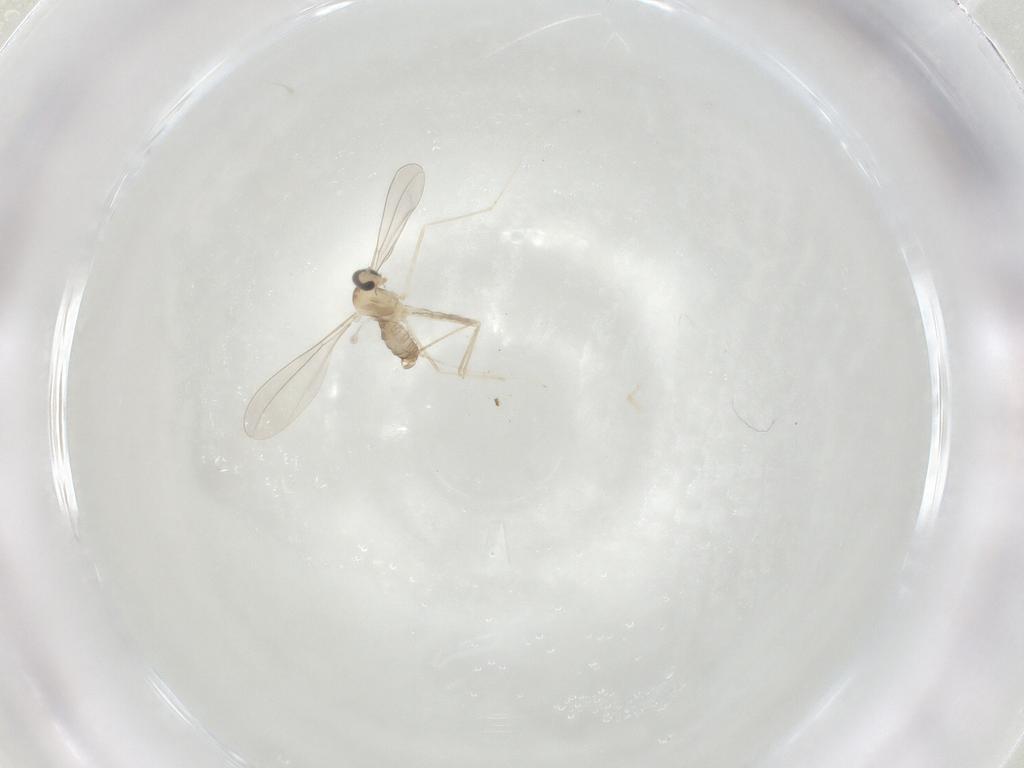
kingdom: Animalia
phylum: Arthropoda
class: Insecta
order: Diptera
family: Cecidomyiidae
